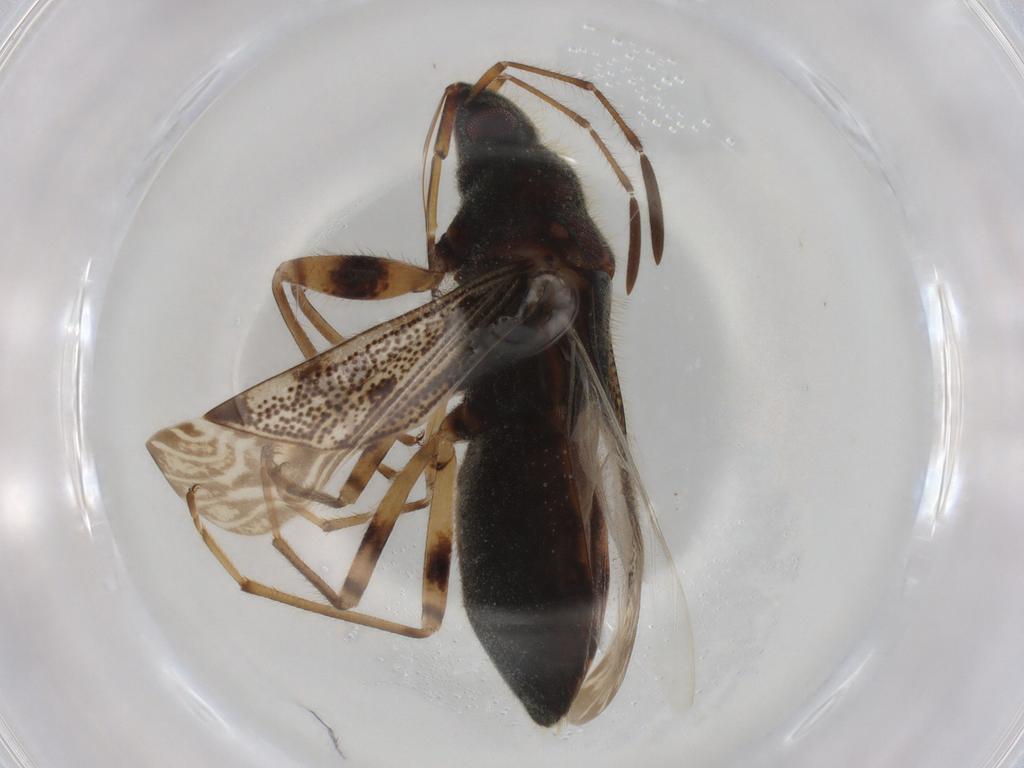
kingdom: Animalia
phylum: Arthropoda
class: Insecta
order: Hemiptera
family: Rhyparochromidae
